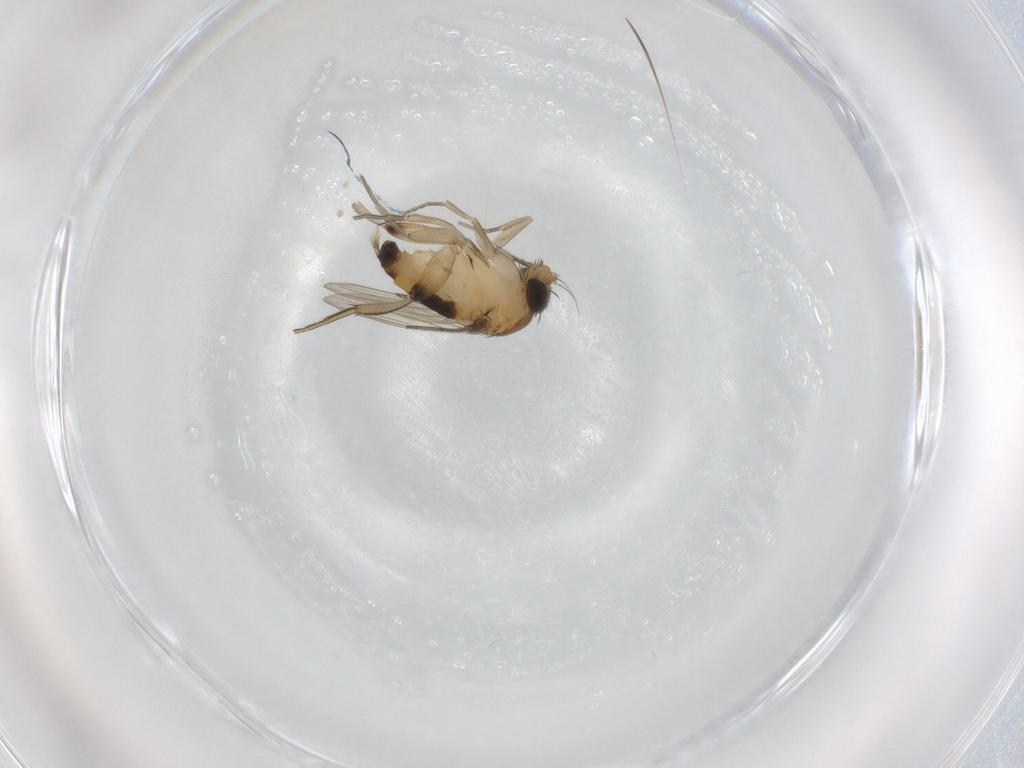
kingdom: Animalia
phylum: Arthropoda
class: Insecta
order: Diptera
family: Phoridae
